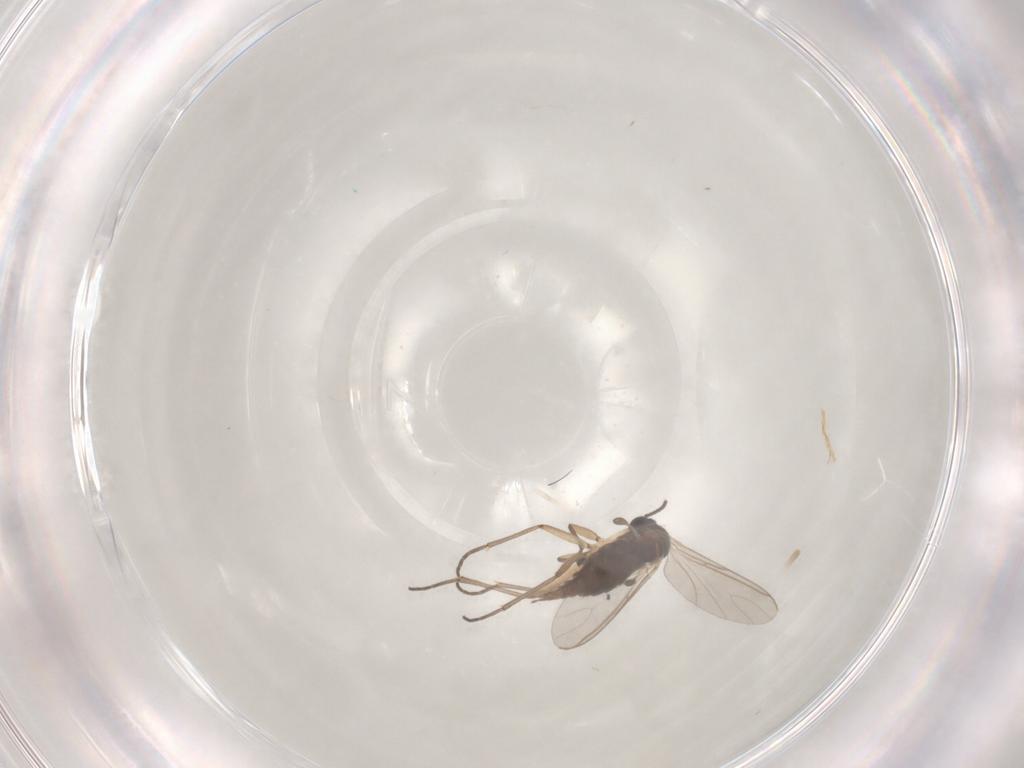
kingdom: Animalia
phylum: Arthropoda
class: Insecta
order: Diptera
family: Sciaridae
